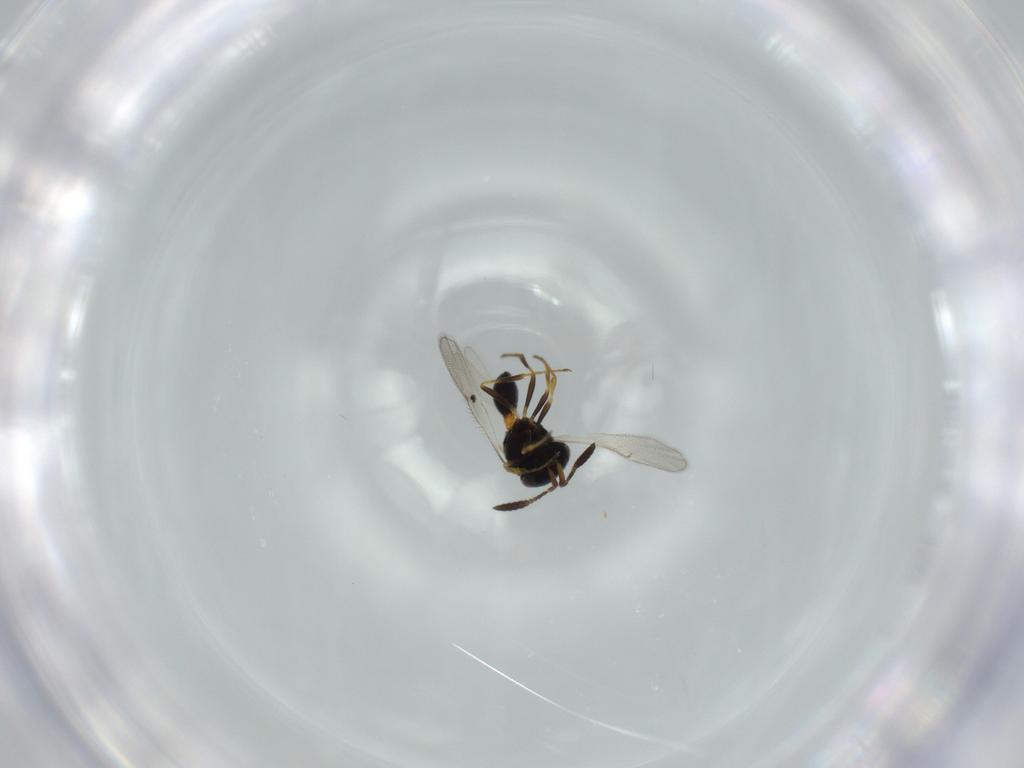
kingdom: Animalia
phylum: Arthropoda
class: Insecta
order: Hymenoptera
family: Scelionidae
